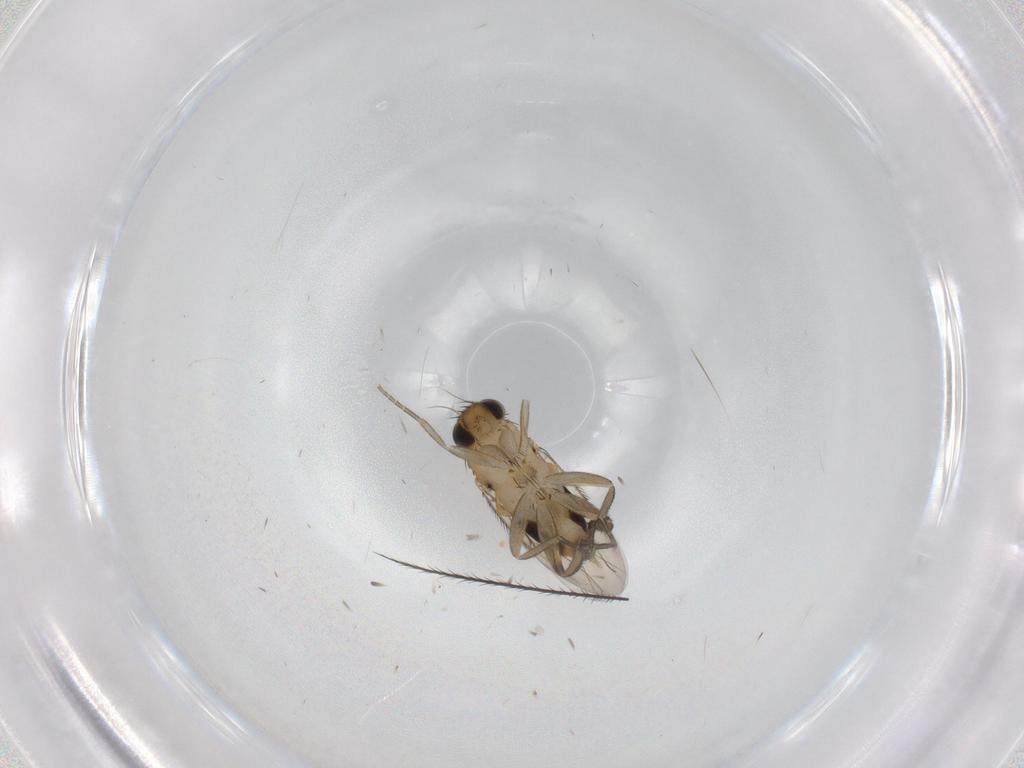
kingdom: Animalia
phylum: Arthropoda
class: Insecta
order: Diptera
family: Phoridae
